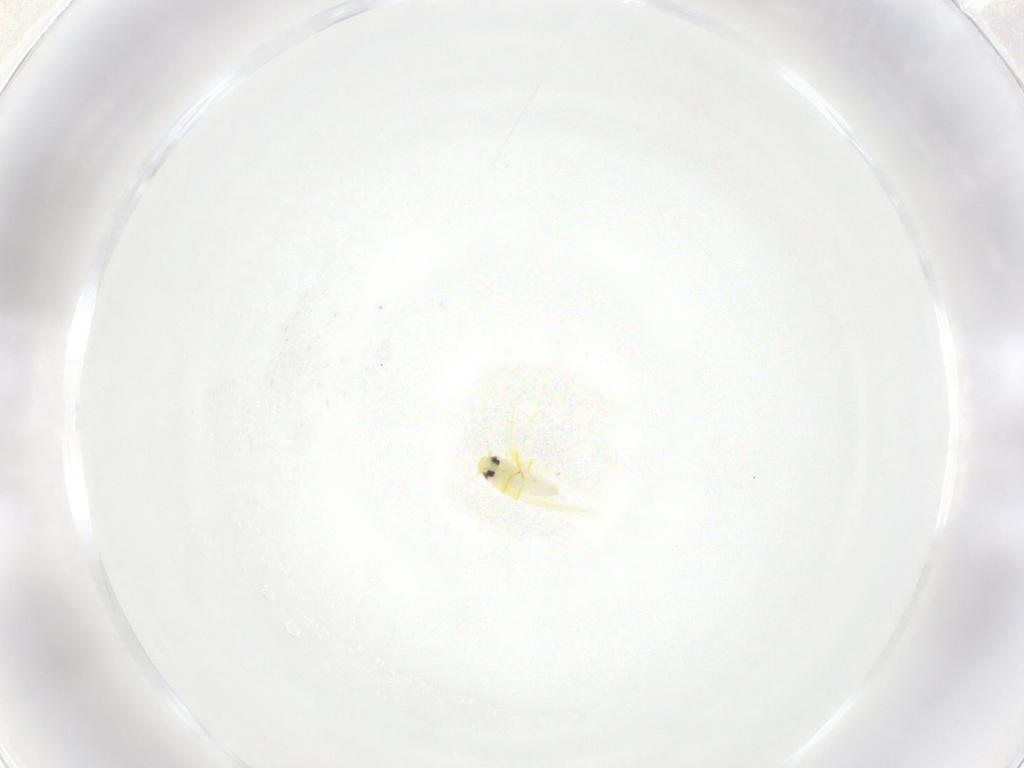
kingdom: Animalia
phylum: Arthropoda
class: Insecta
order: Hemiptera
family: Aleyrodidae
